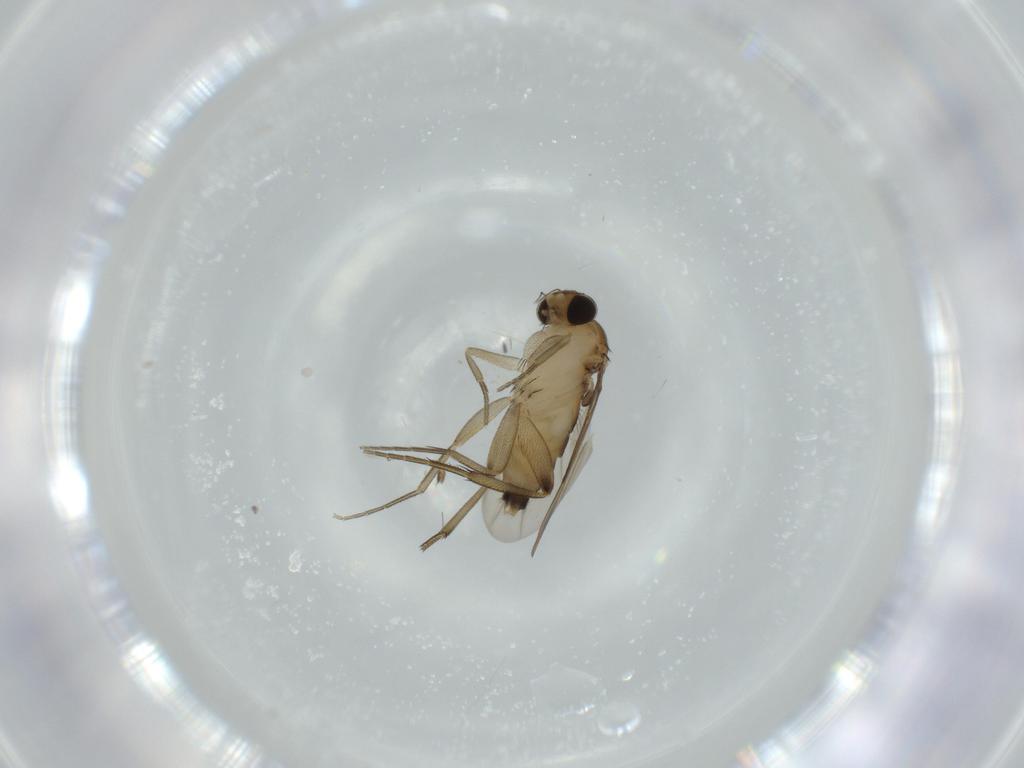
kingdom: Animalia
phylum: Arthropoda
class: Insecta
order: Diptera
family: Phoridae
